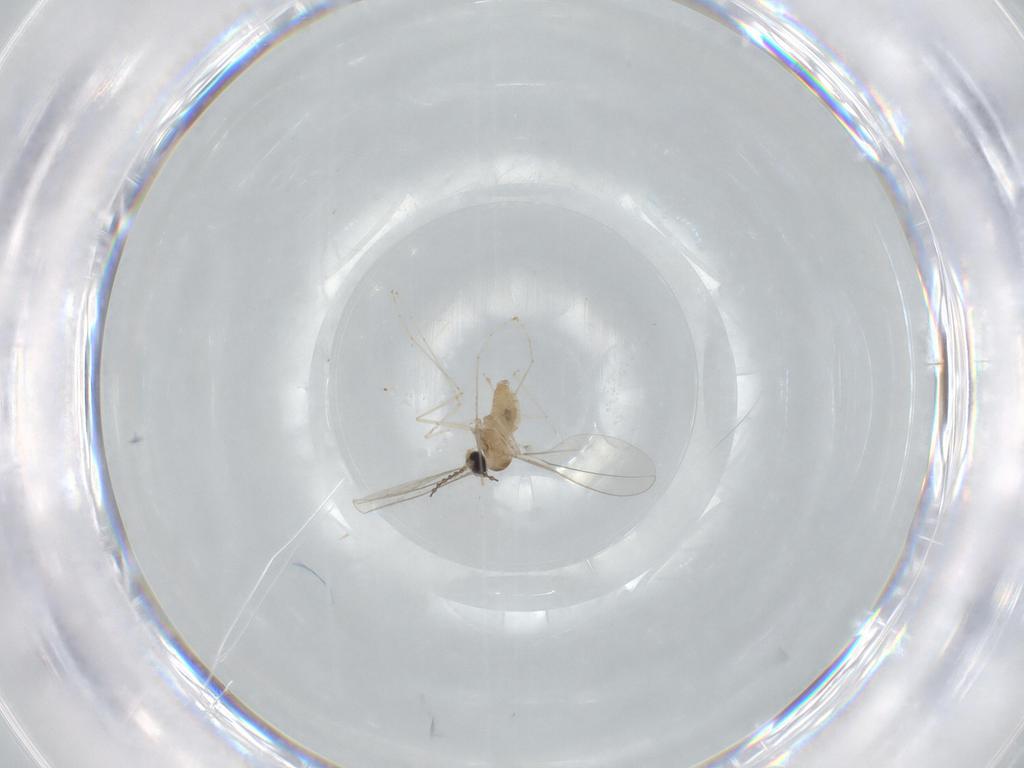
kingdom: Animalia
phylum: Arthropoda
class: Insecta
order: Diptera
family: Cecidomyiidae
